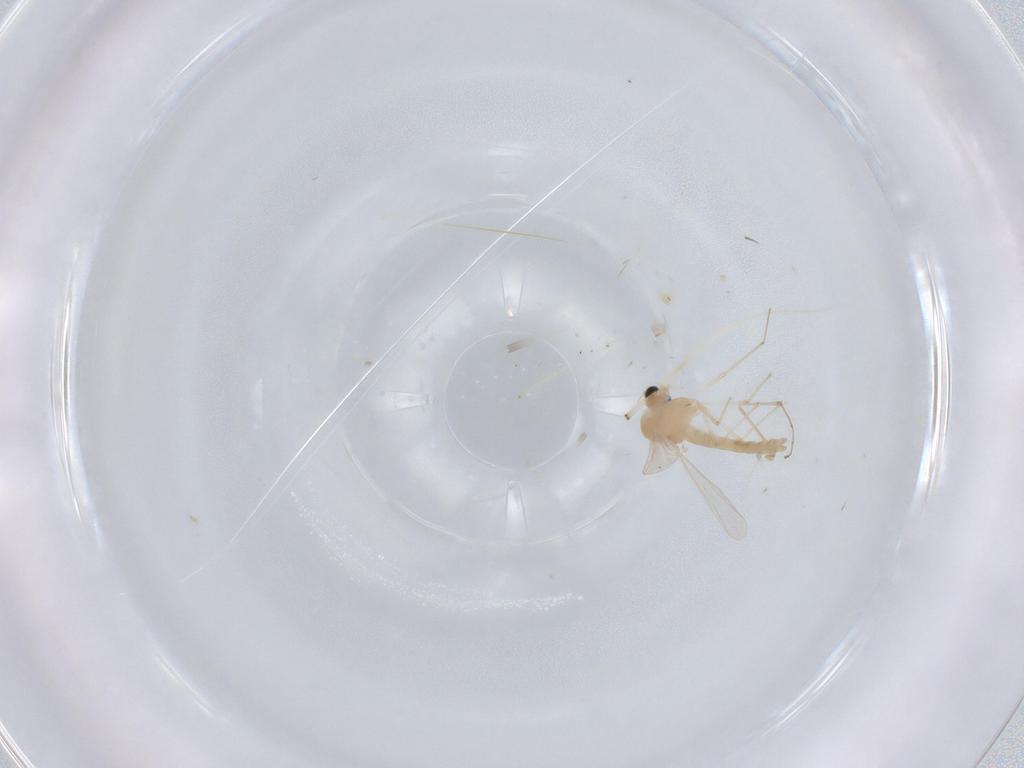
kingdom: Animalia
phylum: Arthropoda
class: Insecta
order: Diptera
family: Chironomidae
